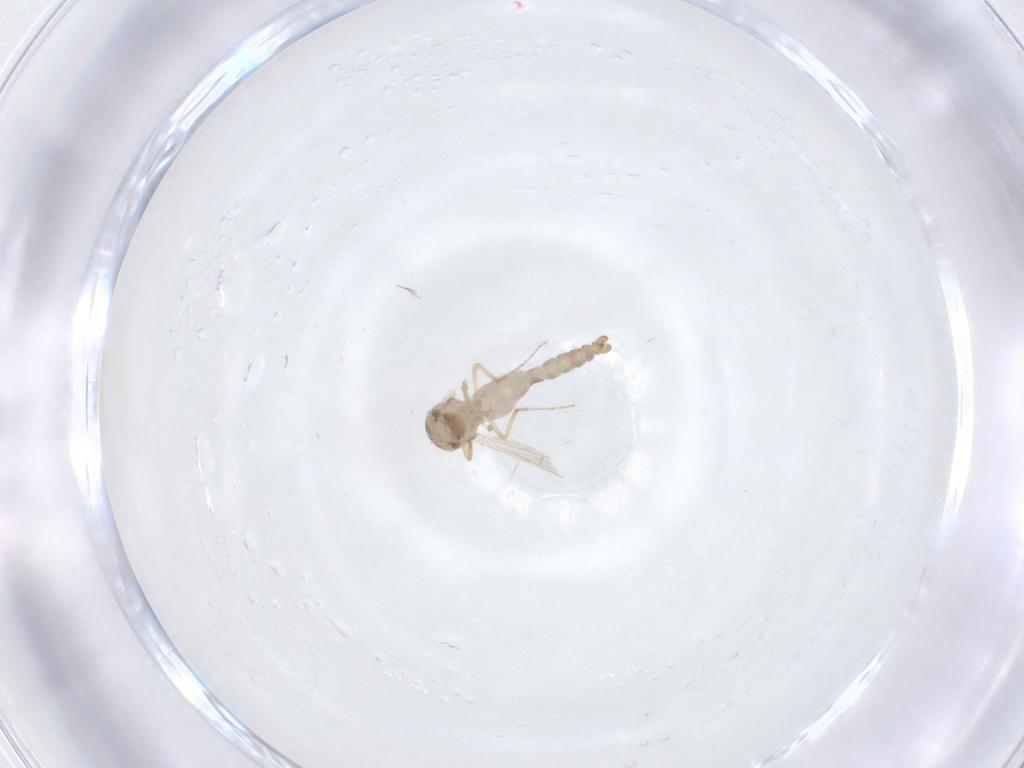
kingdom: Animalia
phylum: Arthropoda
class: Insecta
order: Diptera
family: Ceratopogonidae
